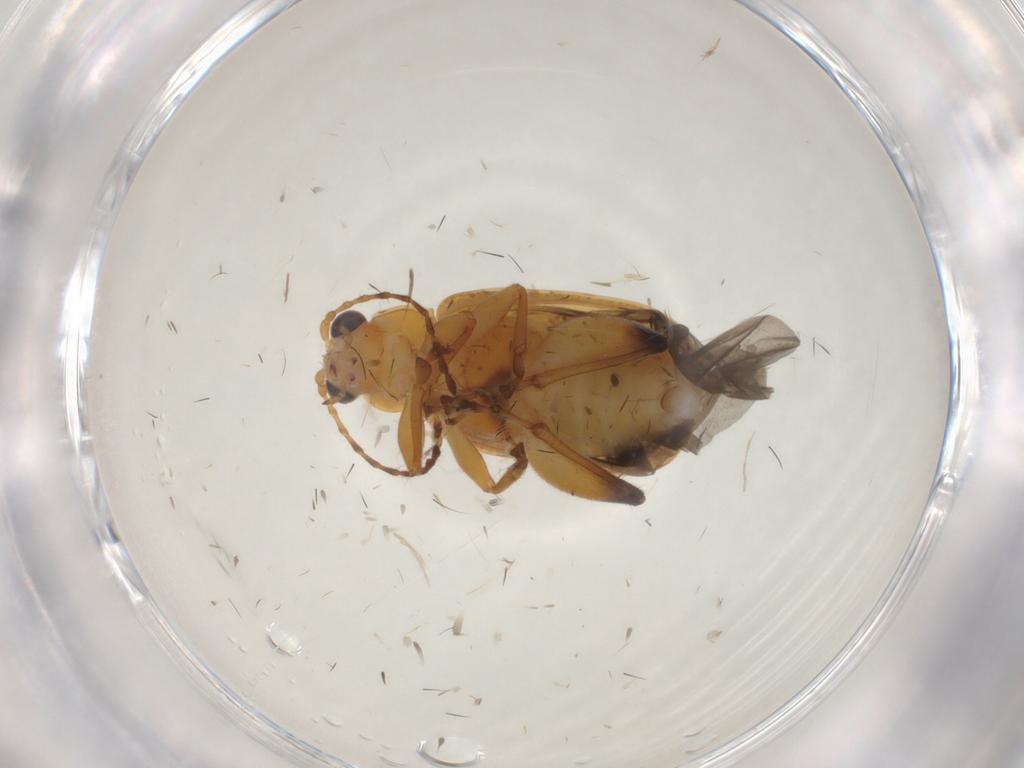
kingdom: Animalia
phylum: Arthropoda
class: Insecta
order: Coleoptera
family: Chrysomelidae
